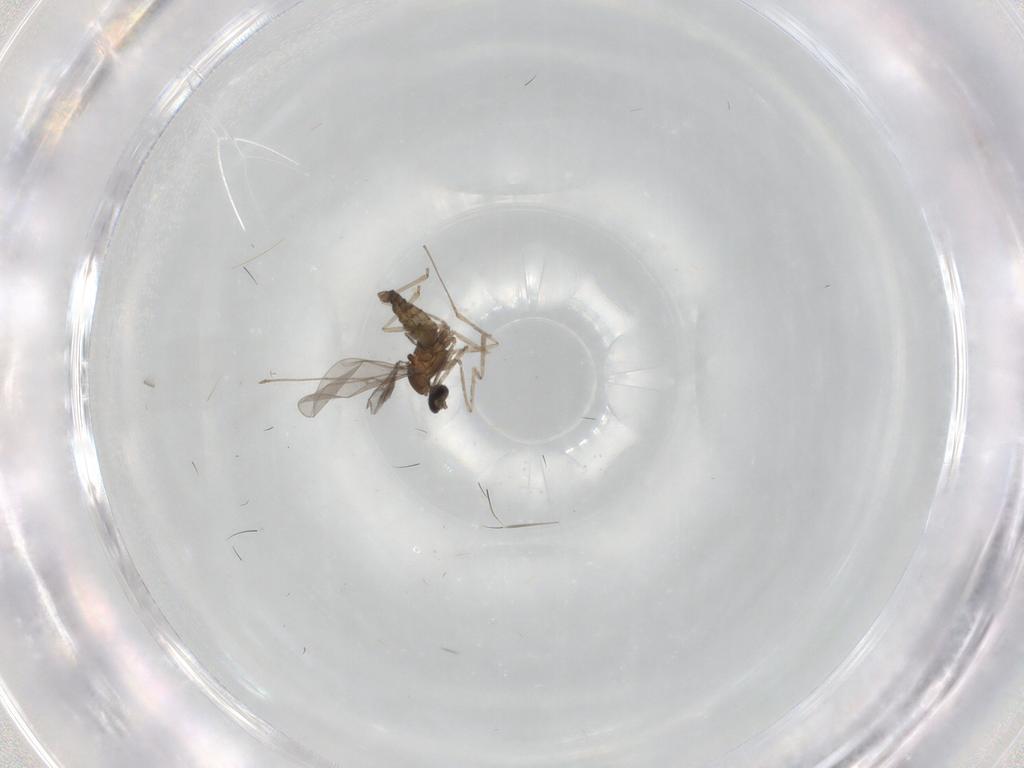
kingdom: Animalia
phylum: Arthropoda
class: Insecta
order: Diptera
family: Cecidomyiidae
